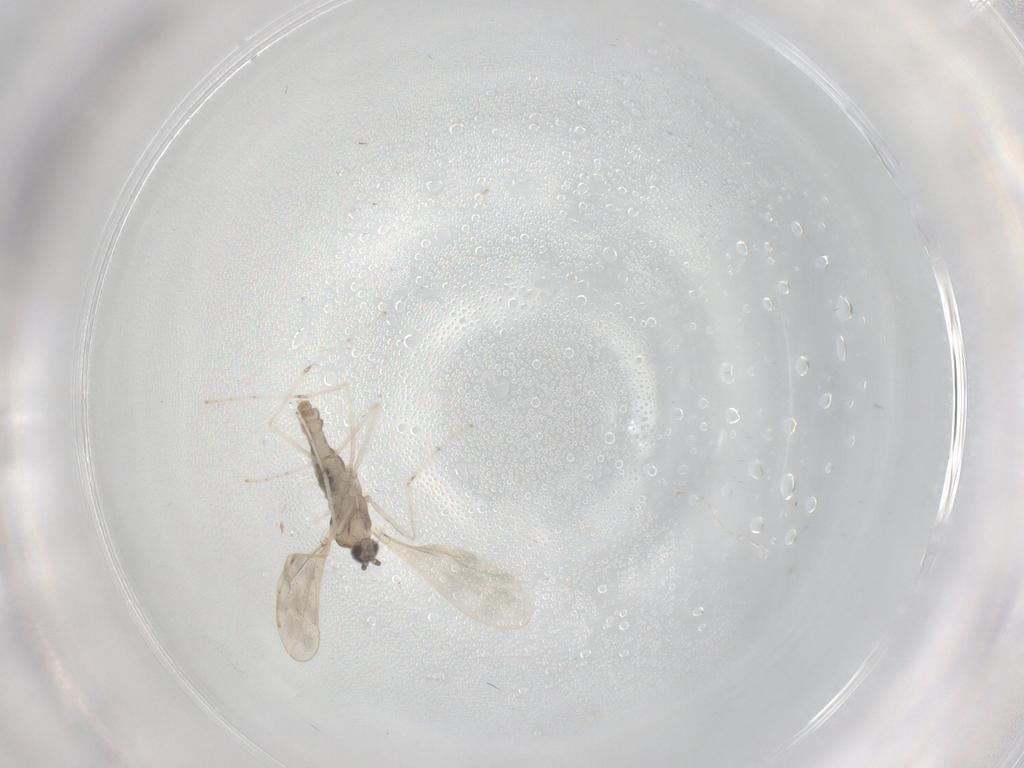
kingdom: Animalia
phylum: Arthropoda
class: Insecta
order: Diptera
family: Cecidomyiidae
